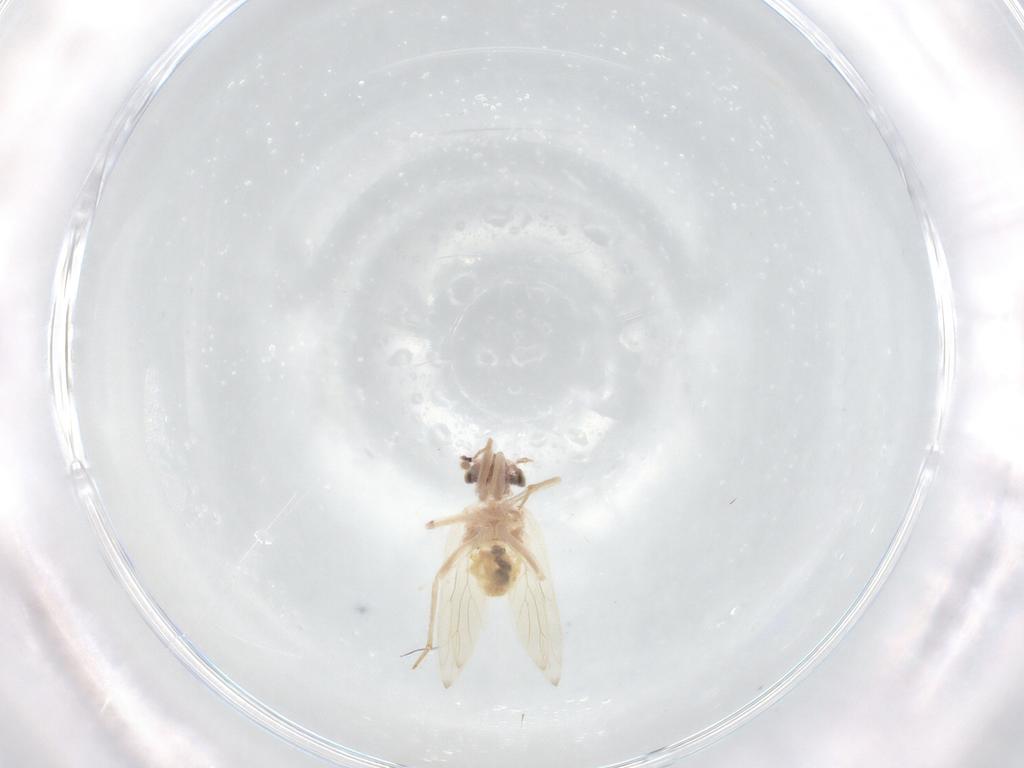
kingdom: Animalia
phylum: Arthropoda
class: Insecta
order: Psocodea
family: Lepidopsocidae
